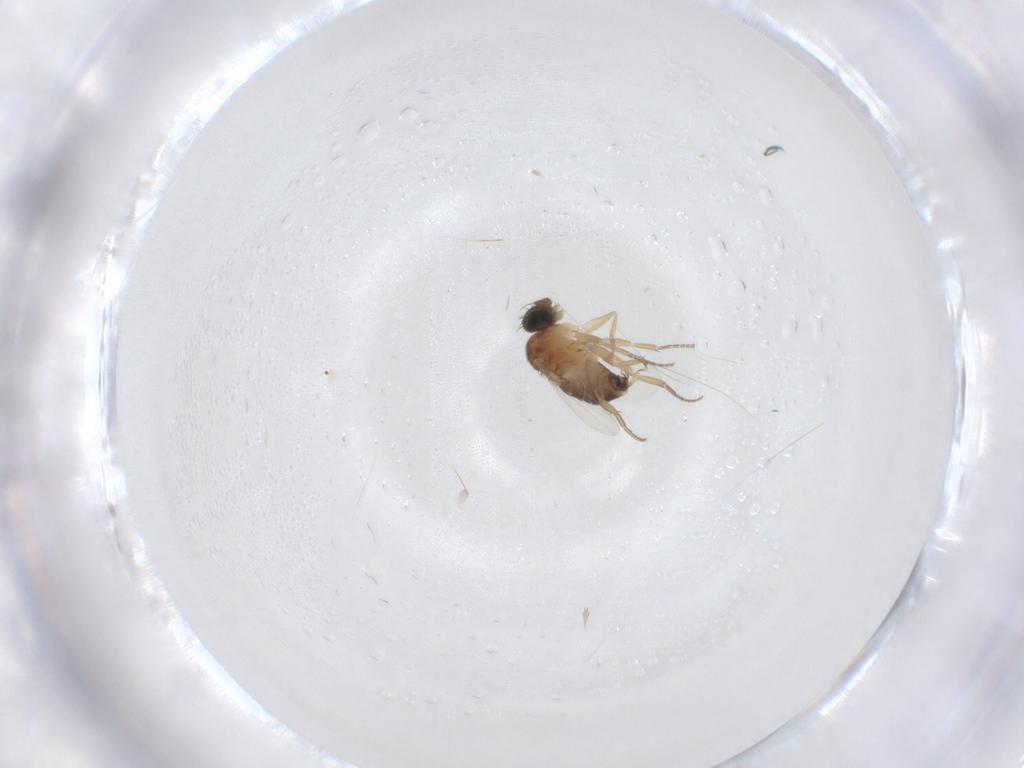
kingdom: Animalia
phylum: Arthropoda
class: Insecta
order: Diptera
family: Phoridae
